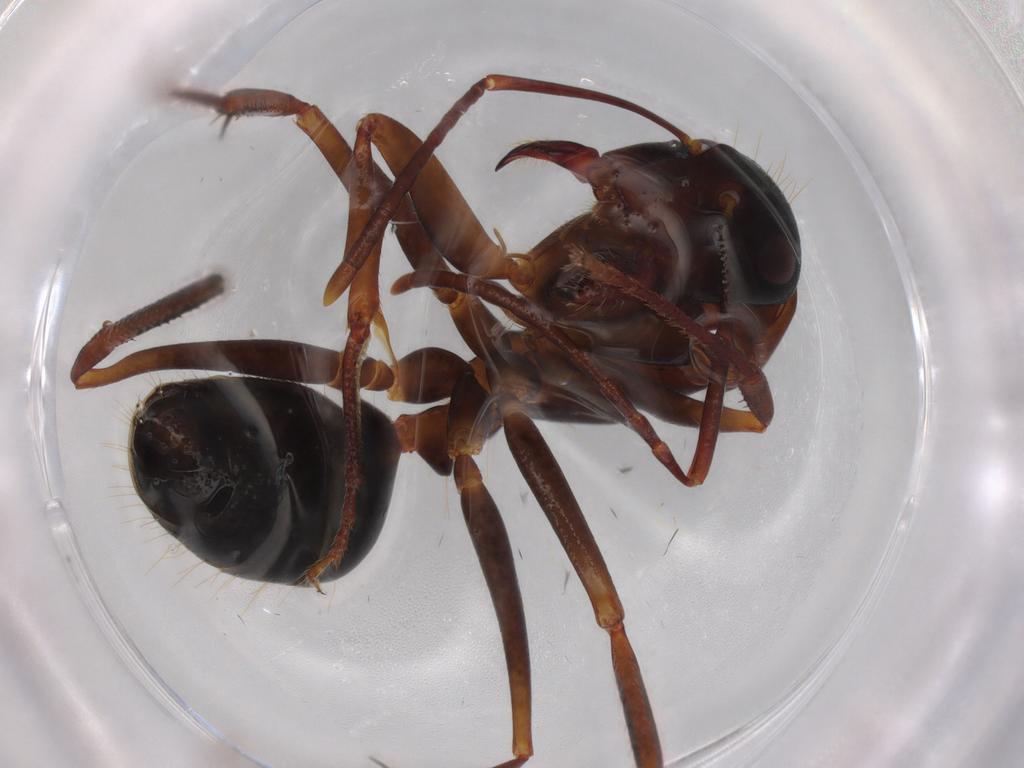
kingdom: Animalia
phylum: Arthropoda
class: Insecta
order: Hymenoptera
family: Formicidae
